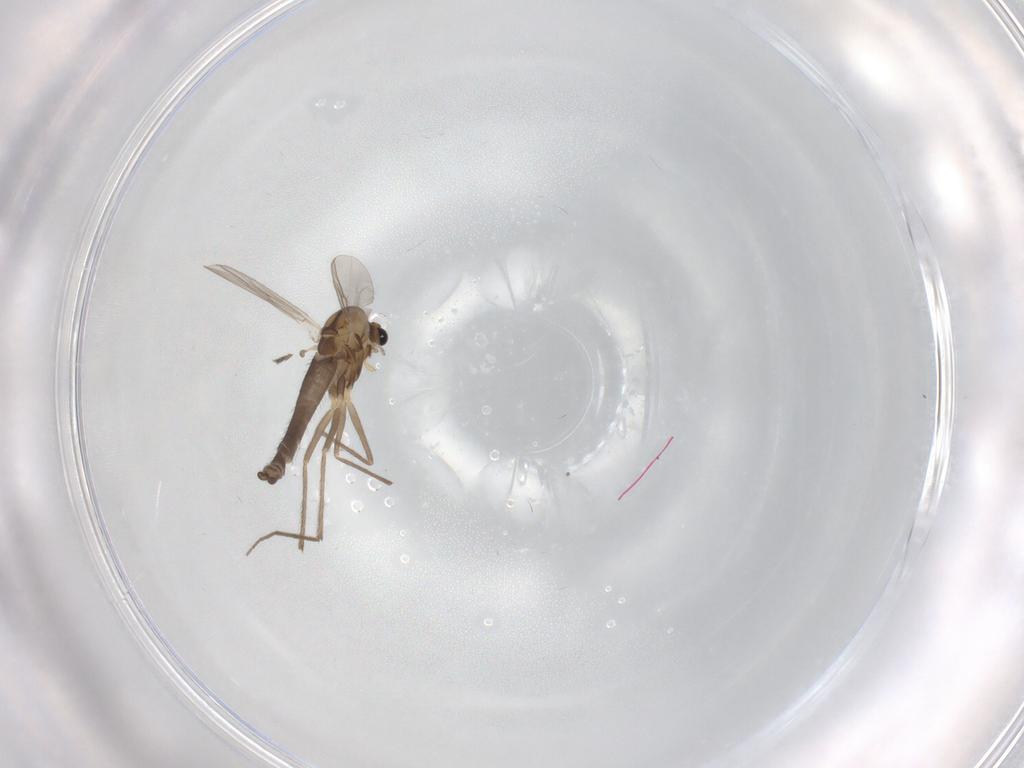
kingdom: Animalia
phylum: Arthropoda
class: Insecta
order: Diptera
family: Chironomidae
